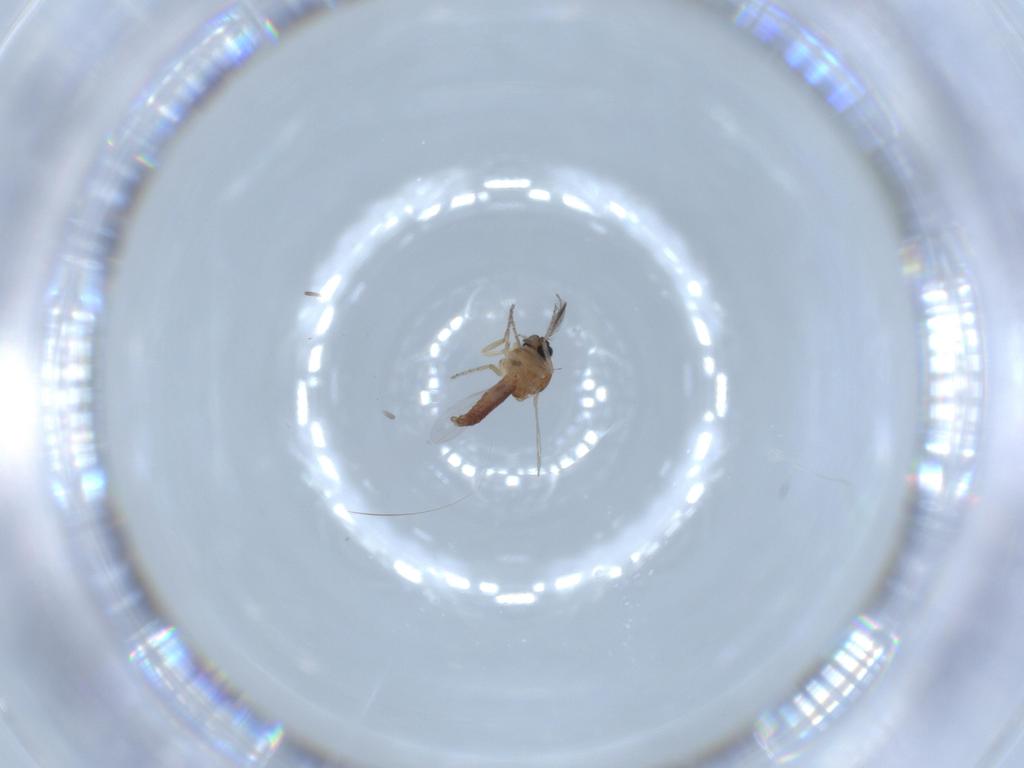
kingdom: Animalia
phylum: Arthropoda
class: Insecta
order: Diptera
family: Ceratopogonidae
